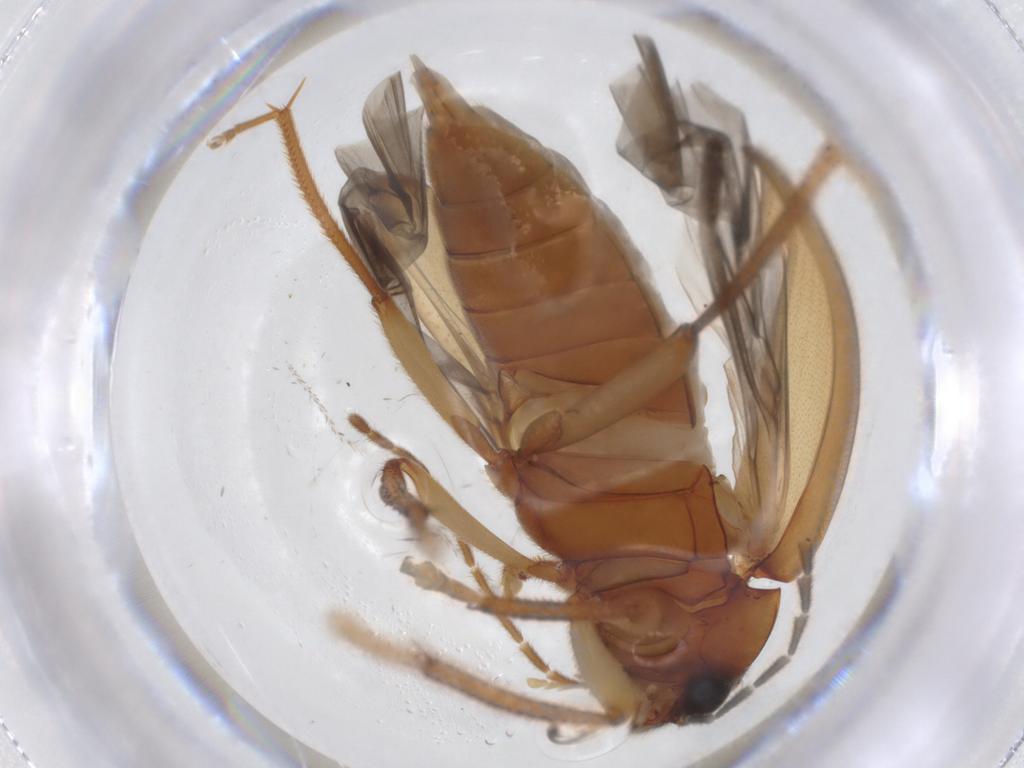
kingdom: Animalia
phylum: Arthropoda
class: Insecta
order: Coleoptera
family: Ptilodactylidae
